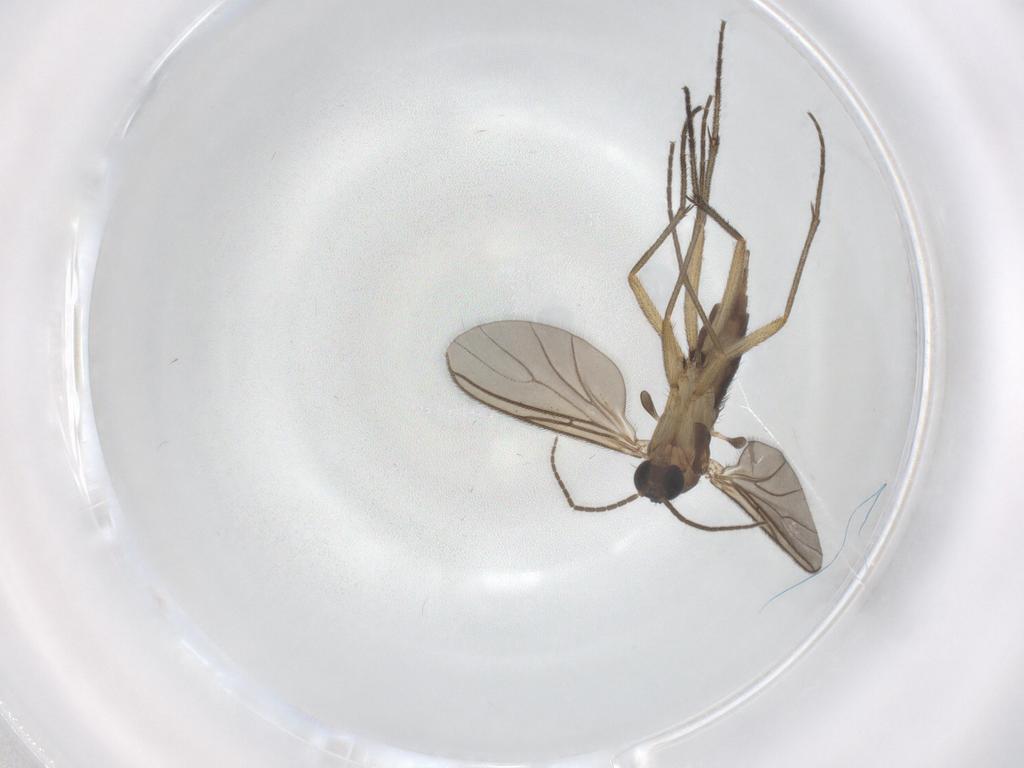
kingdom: Animalia
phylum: Arthropoda
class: Insecta
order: Diptera
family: Sciaridae
